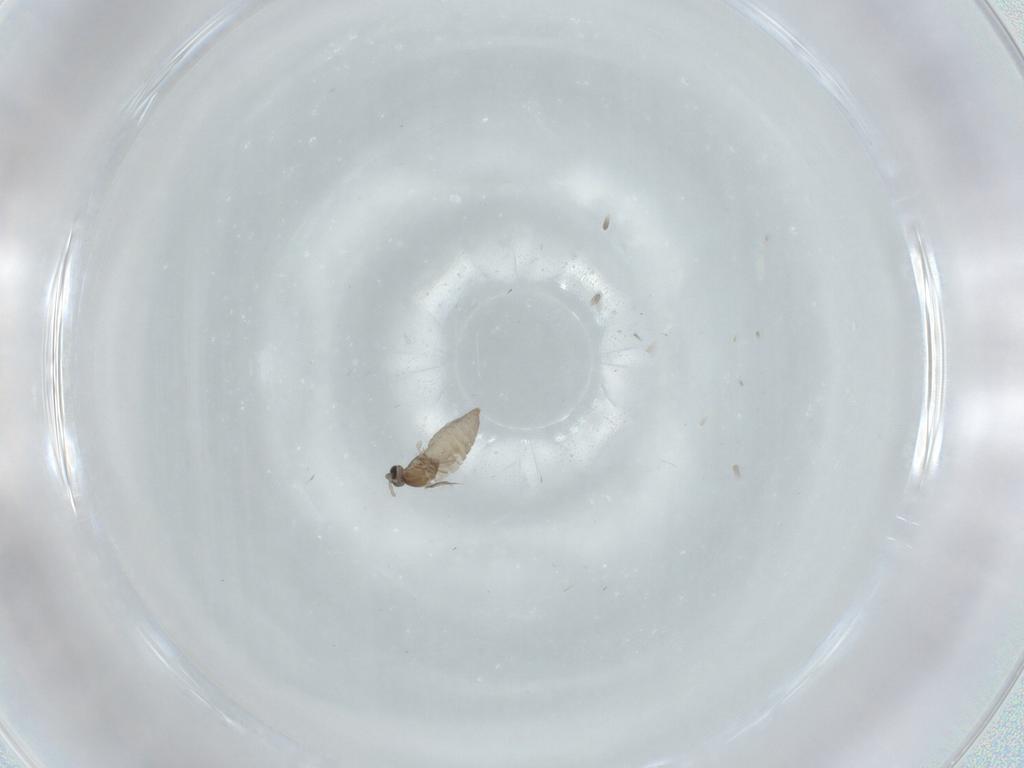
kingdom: Animalia
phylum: Arthropoda
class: Insecta
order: Diptera
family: Cecidomyiidae
